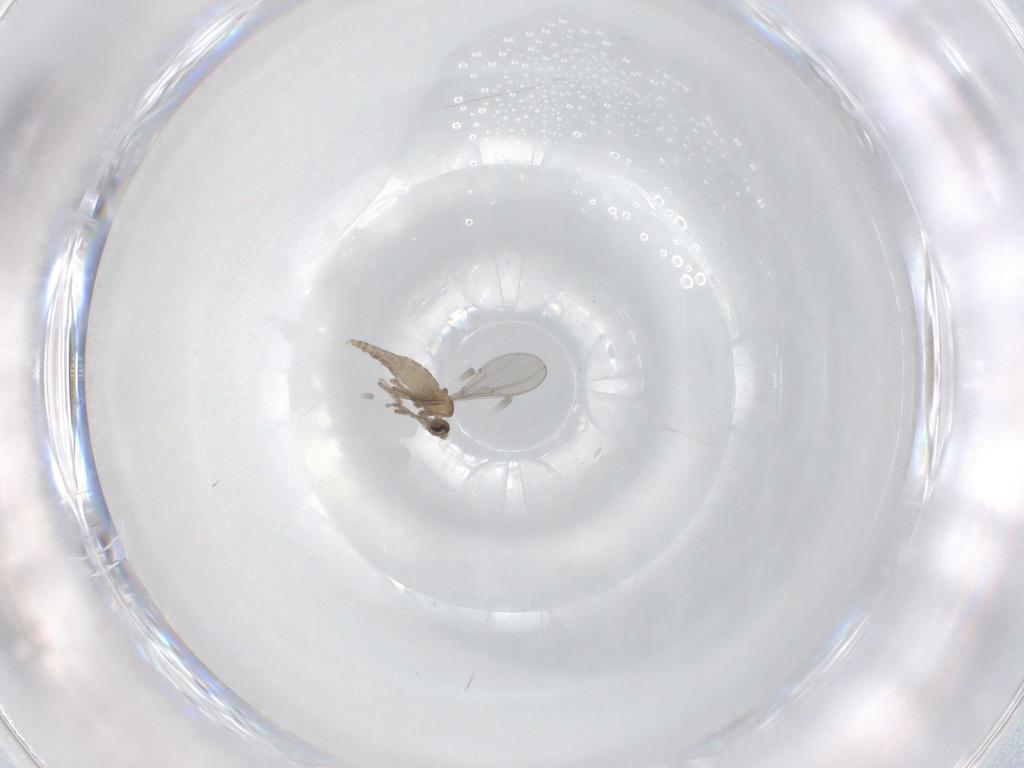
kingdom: Animalia
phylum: Arthropoda
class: Insecta
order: Diptera
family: Cecidomyiidae
